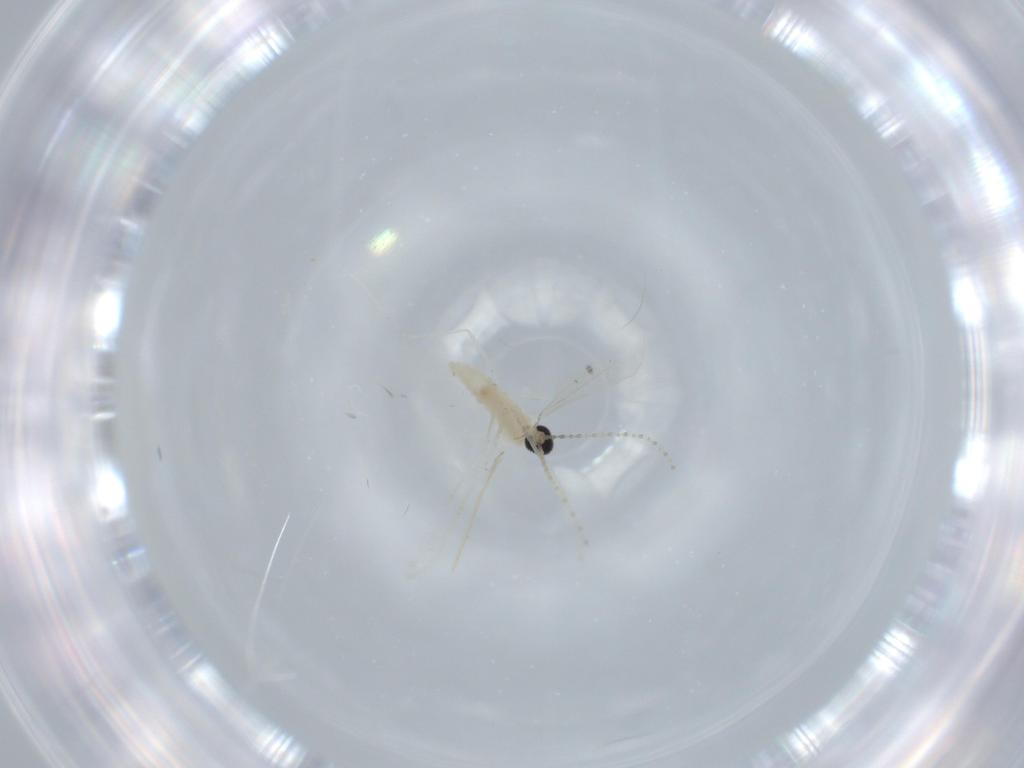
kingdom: Animalia
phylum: Arthropoda
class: Insecta
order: Diptera
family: Cecidomyiidae
